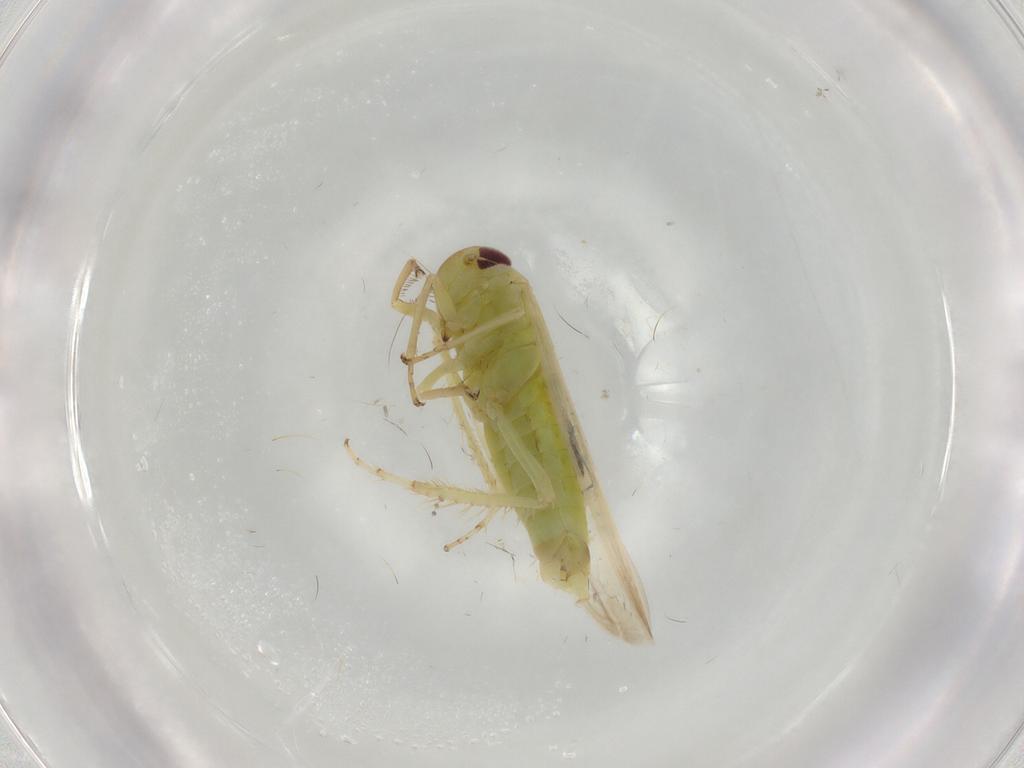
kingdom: Animalia
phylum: Arthropoda
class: Insecta
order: Hemiptera
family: Cicadellidae
